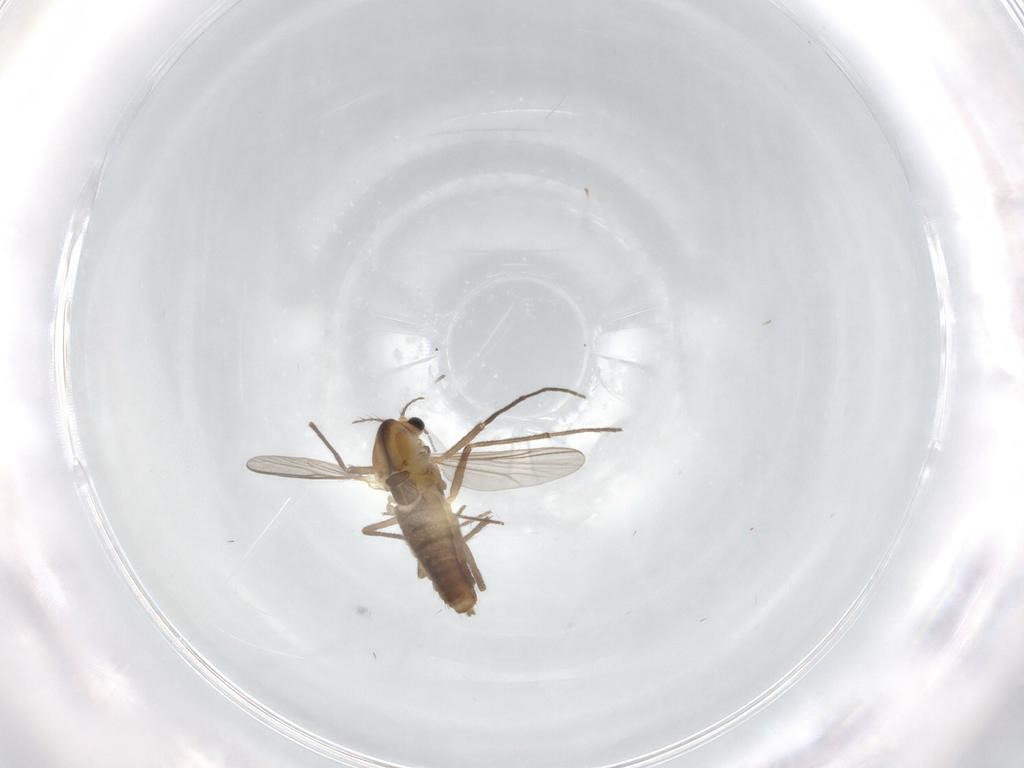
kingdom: Animalia
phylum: Arthropoda
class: Insecta
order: Diptera
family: Chironomidae
